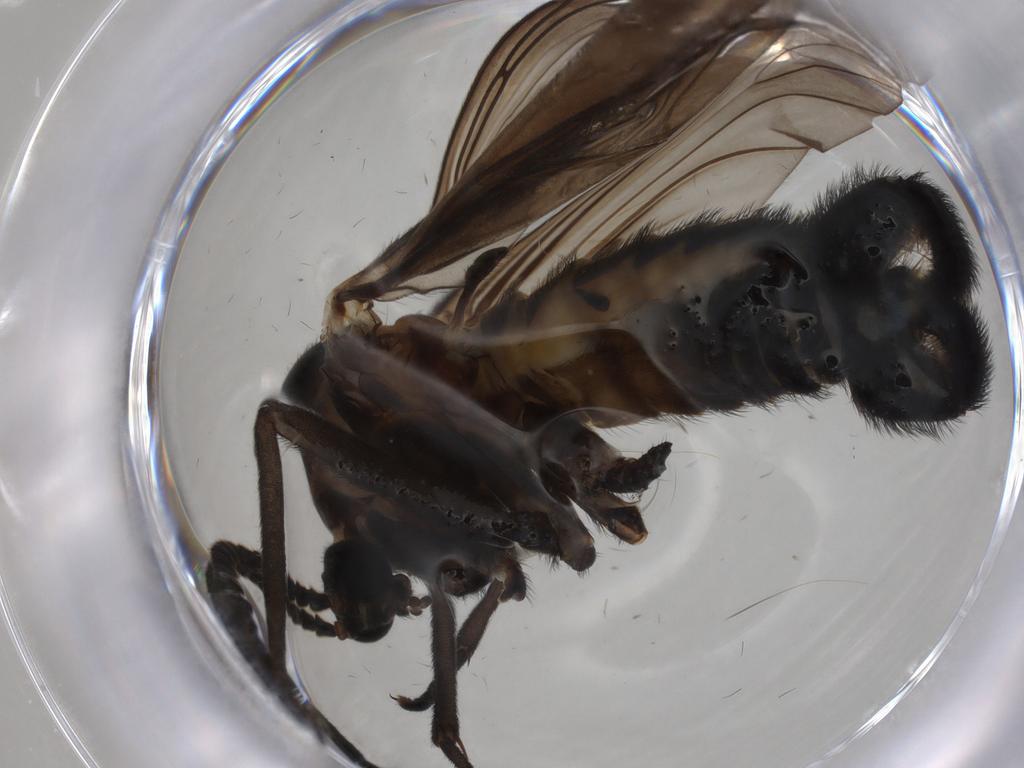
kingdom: Animalia
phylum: Arthropoda
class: Insecta
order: Diptera
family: Sciaridae
